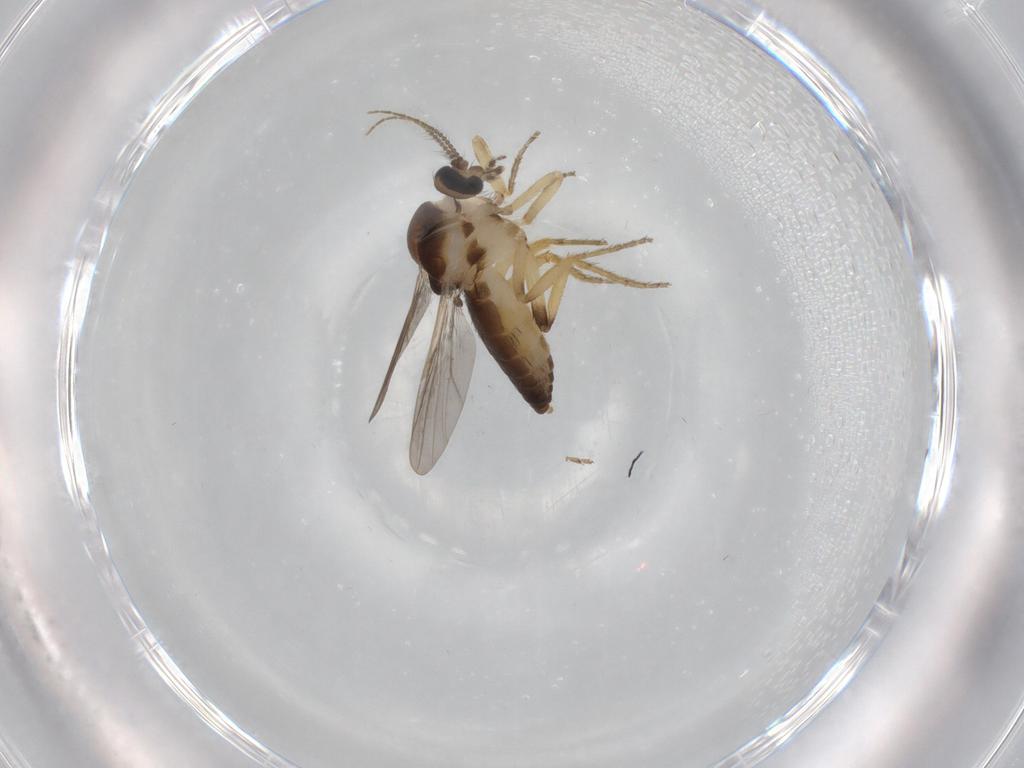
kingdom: Animalia
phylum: Arthropoda
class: Insecta
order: Diptera
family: Ceratopogonidae
